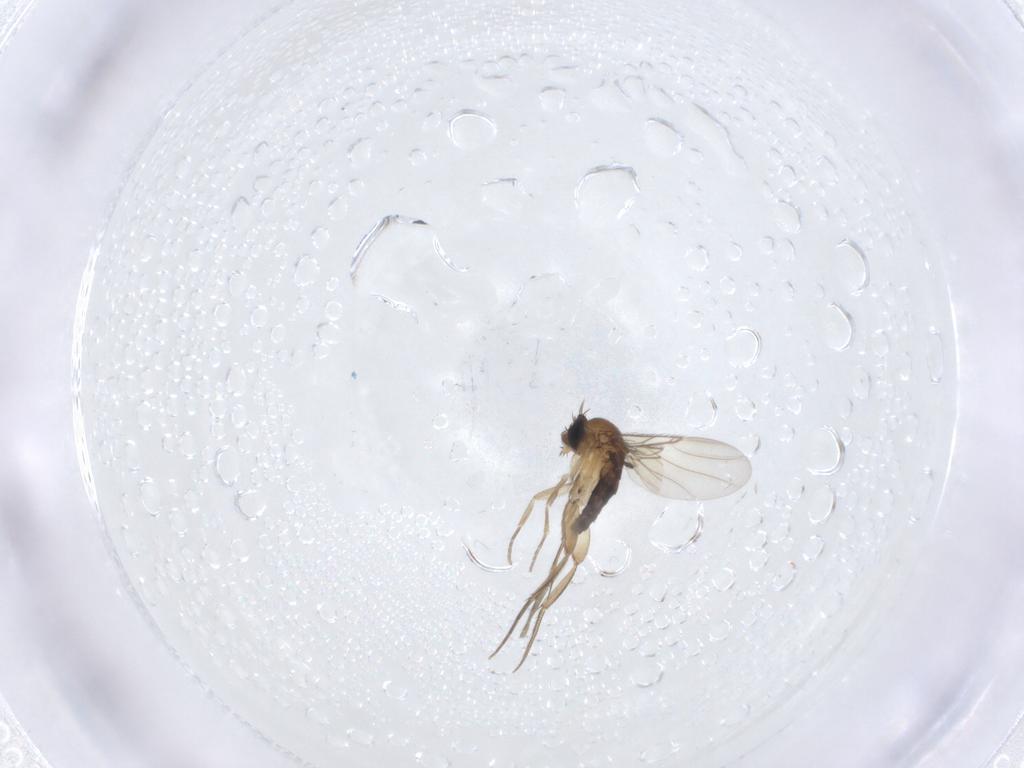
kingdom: Animalia
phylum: Arthropoda
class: Insecta
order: Diptera
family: Phoridae
